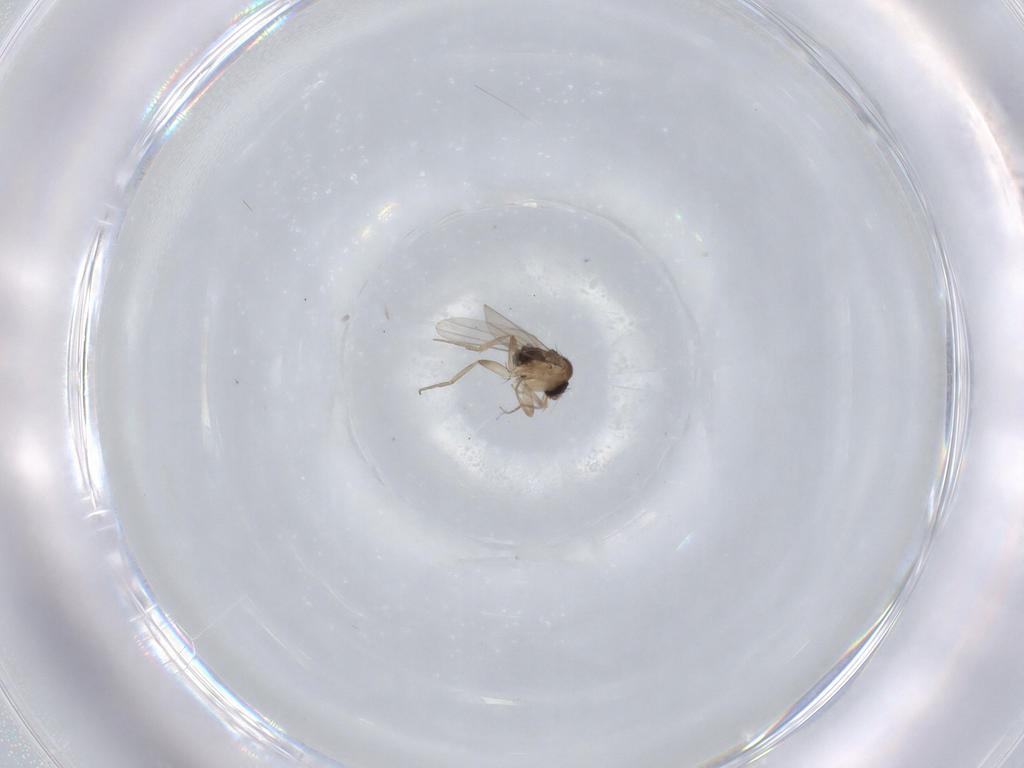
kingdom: Animalia
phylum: Arthropoda
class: Insecta
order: Diptera
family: Phoridae
